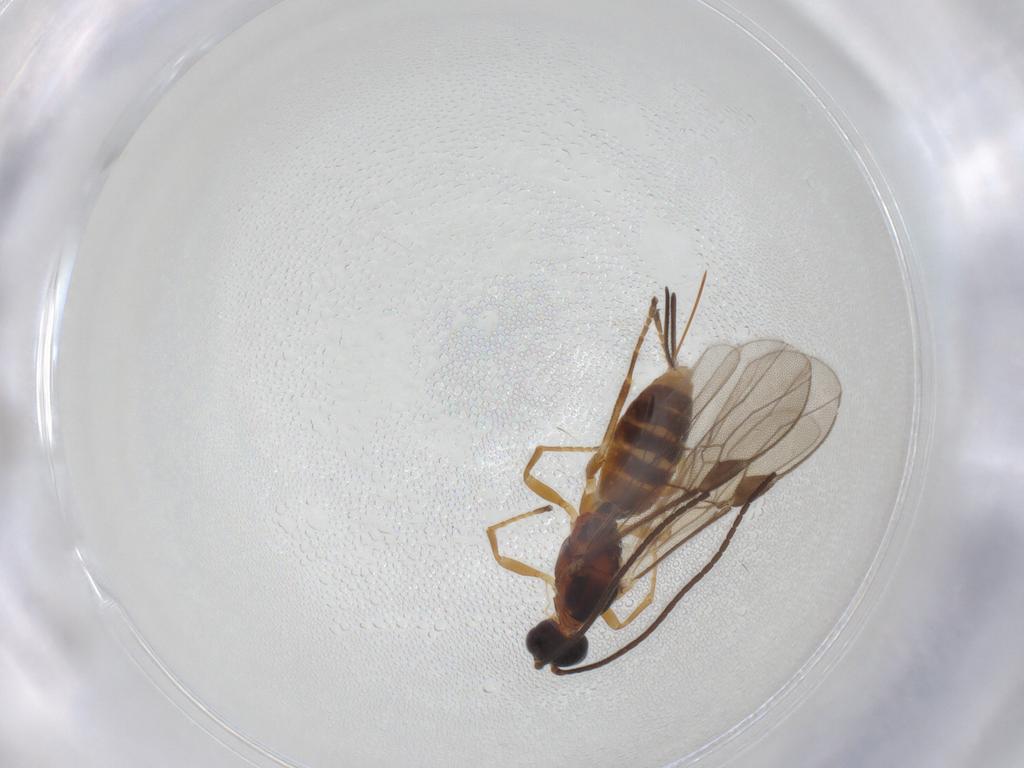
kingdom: Animalia
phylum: Arthropoda
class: Insecta
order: Hymenoptera
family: Braconidae
